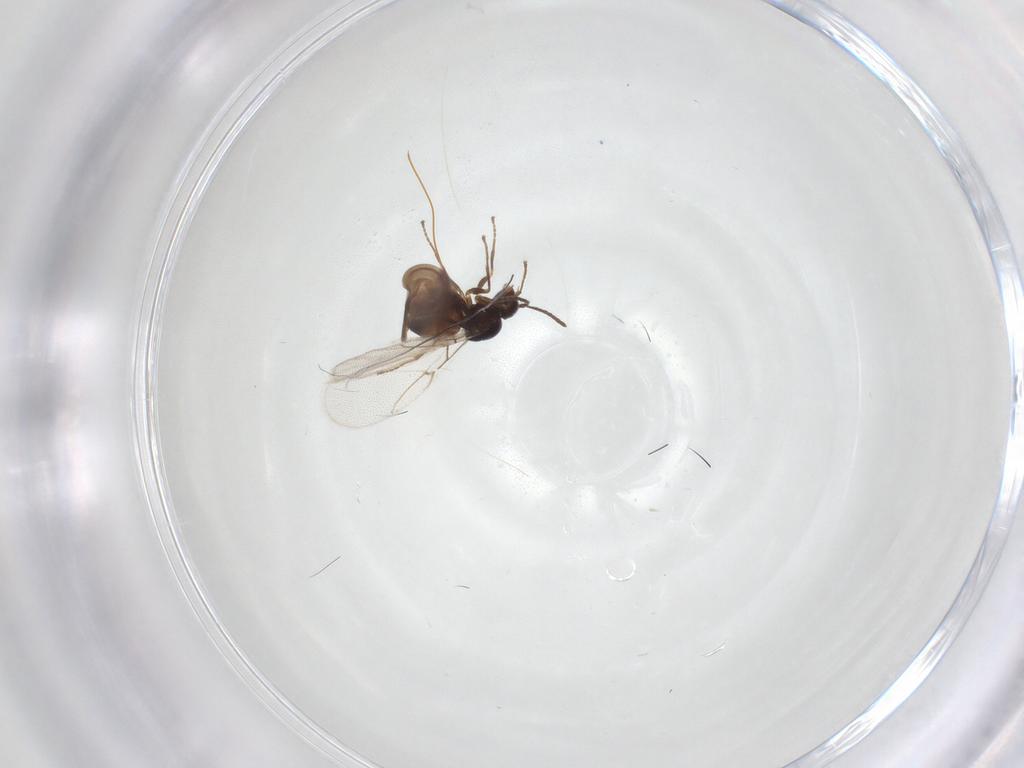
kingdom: Animalia
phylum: Arthropoda
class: Insecta
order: Hymenoptera
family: Cynipidae
